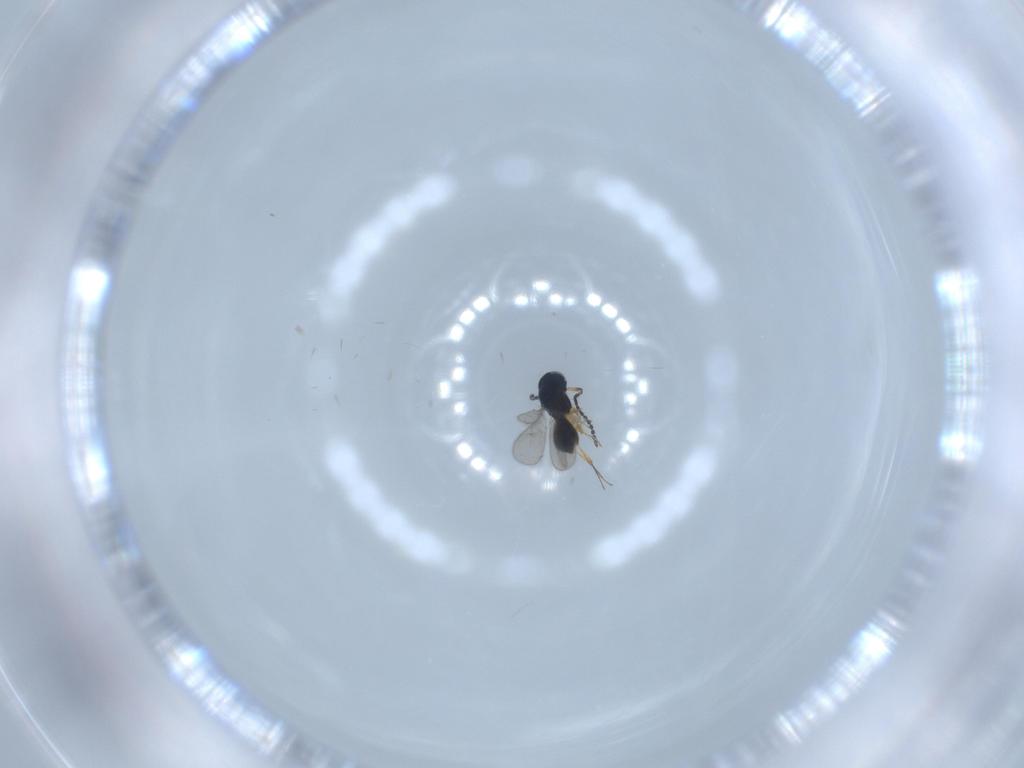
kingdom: Animalia
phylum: Arthropoda
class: Insecta
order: Hymenoptera
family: Scelionidae
